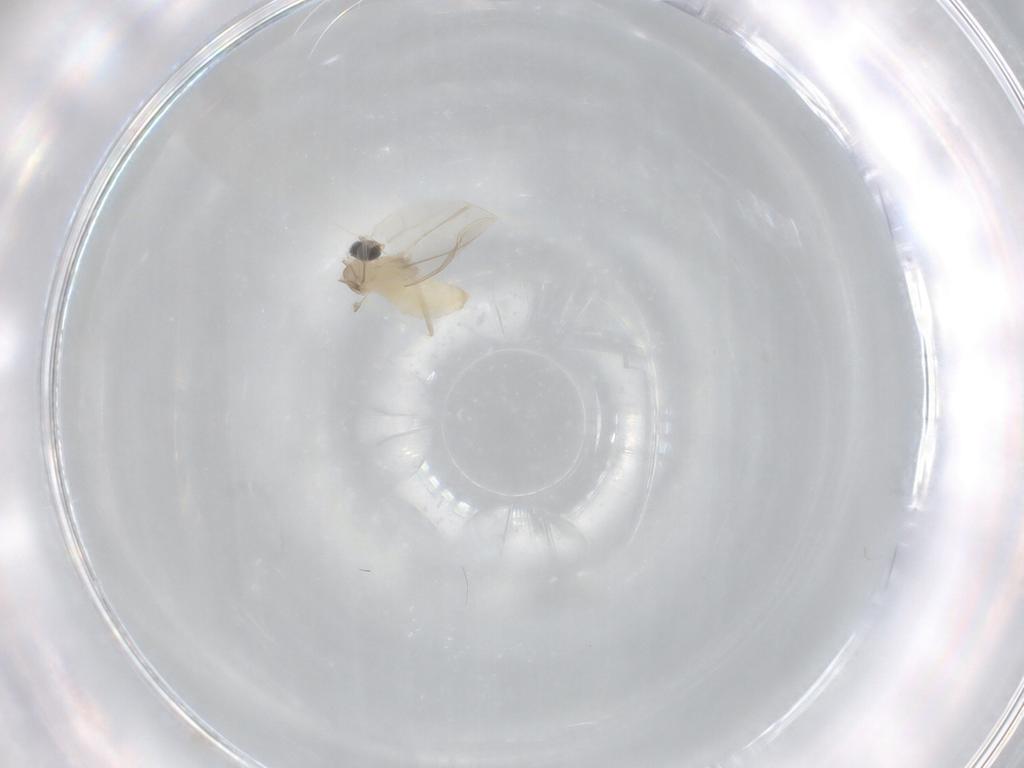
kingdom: Animalia
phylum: Arthropoda
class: Insecta
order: Diptera
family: Cecidomyiidae
